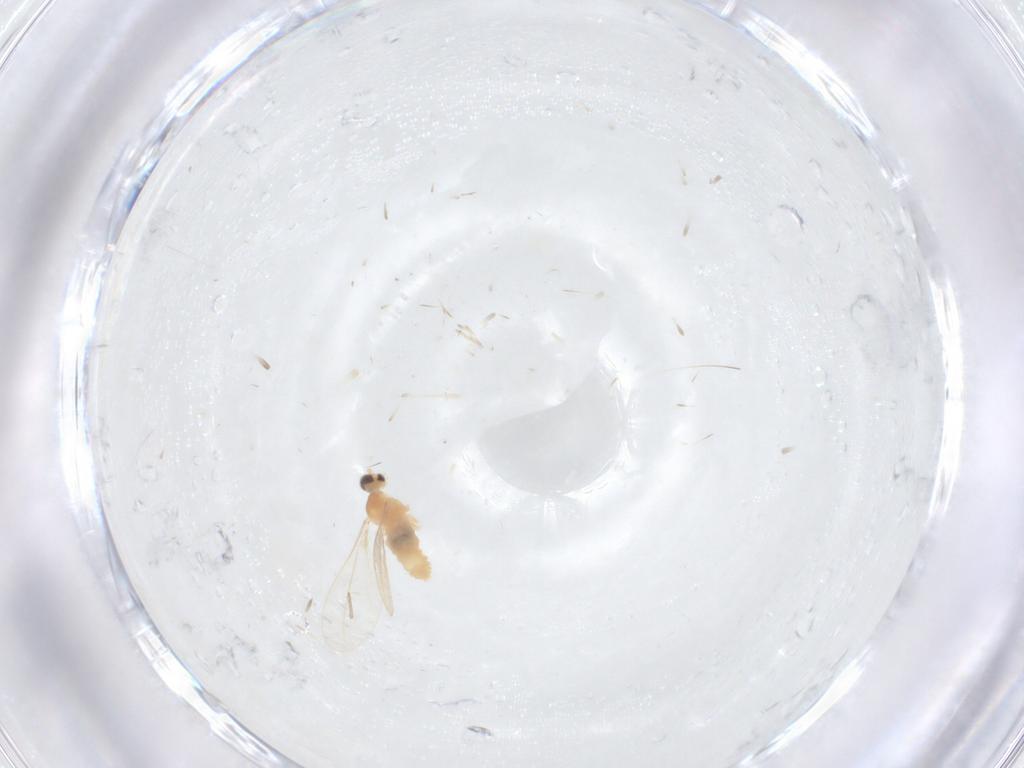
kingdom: Animalia
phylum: Arthropoda
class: Insecta
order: Diptera
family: Cecidomyiidae
